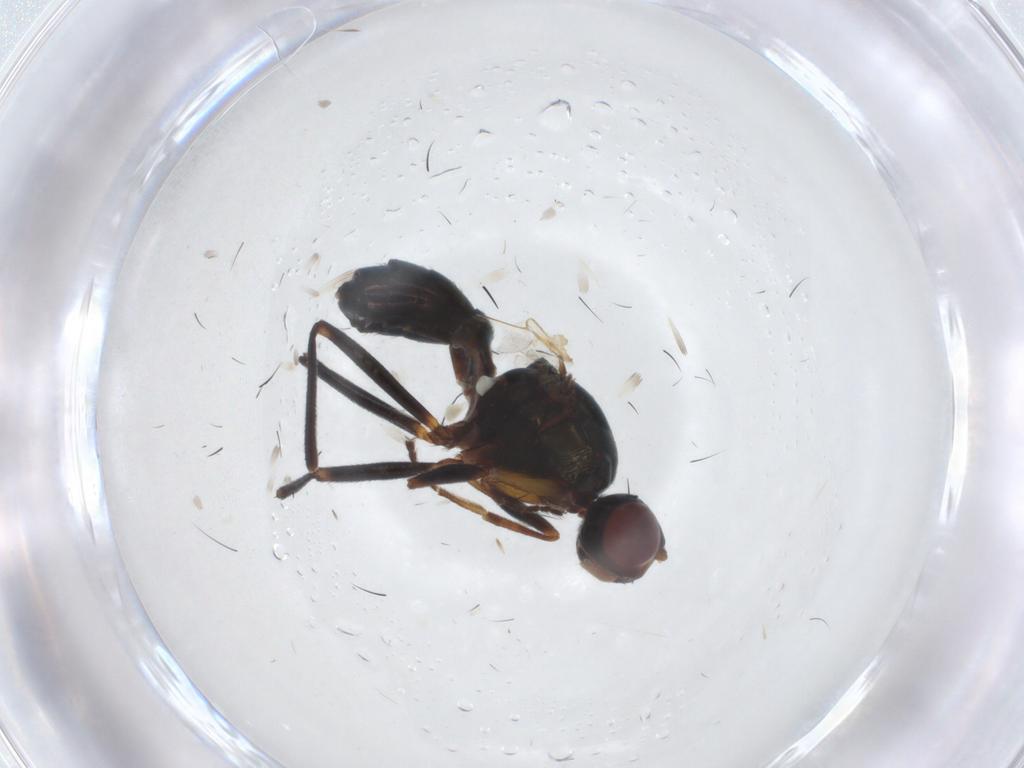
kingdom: Animalia
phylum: Arthropoda
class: Insecta
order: Diptera
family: Sepsidae
